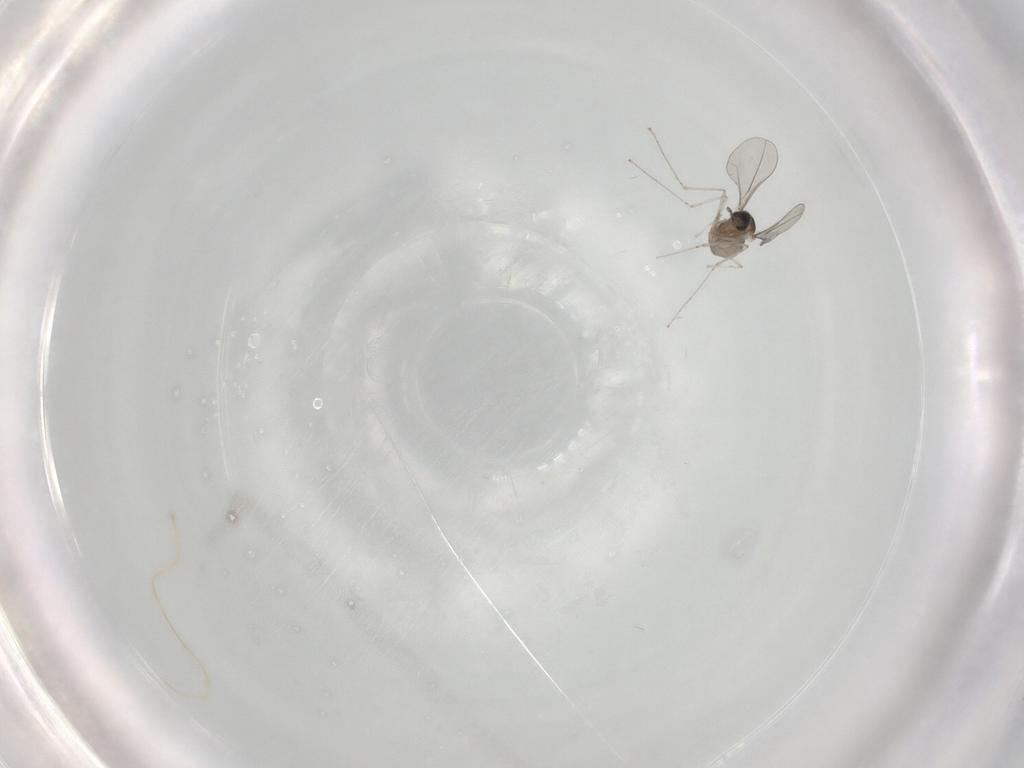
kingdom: Animalia
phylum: Arthropoda
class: Insecta
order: Diptera
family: Cecidomyiidae
